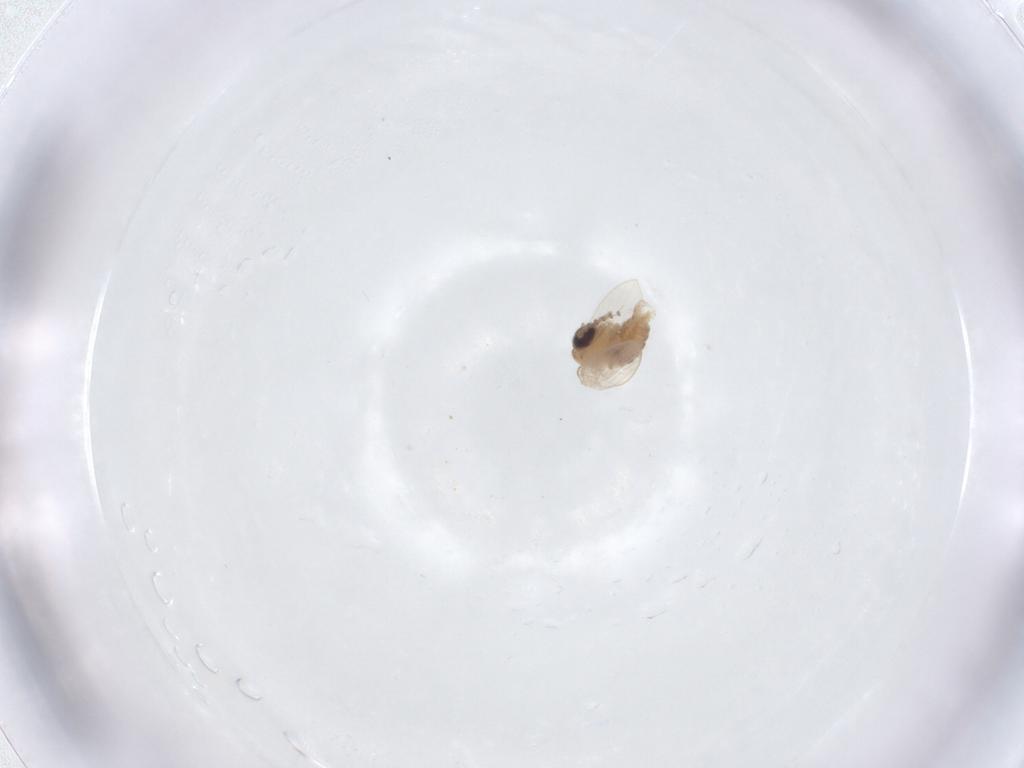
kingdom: Animalia
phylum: Arthropoda
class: Insecta
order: Diptera
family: Psychodidae
